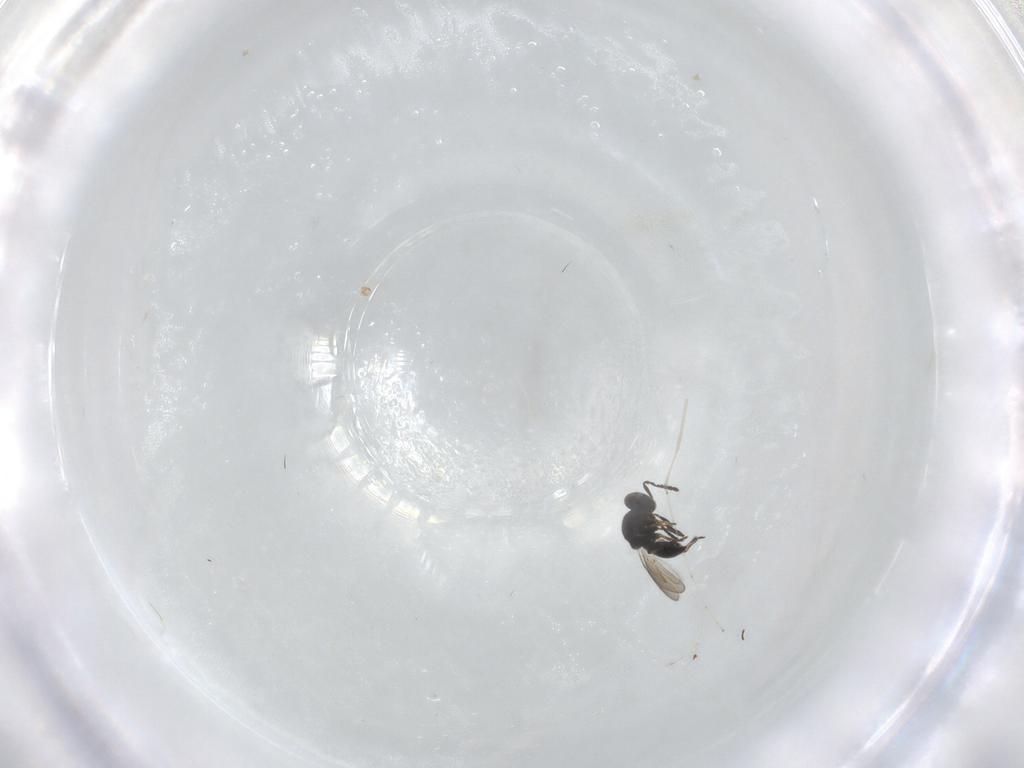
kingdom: Animalia
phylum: Arthropoda
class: Insecta
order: Hymenoptera
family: Platygastridae
